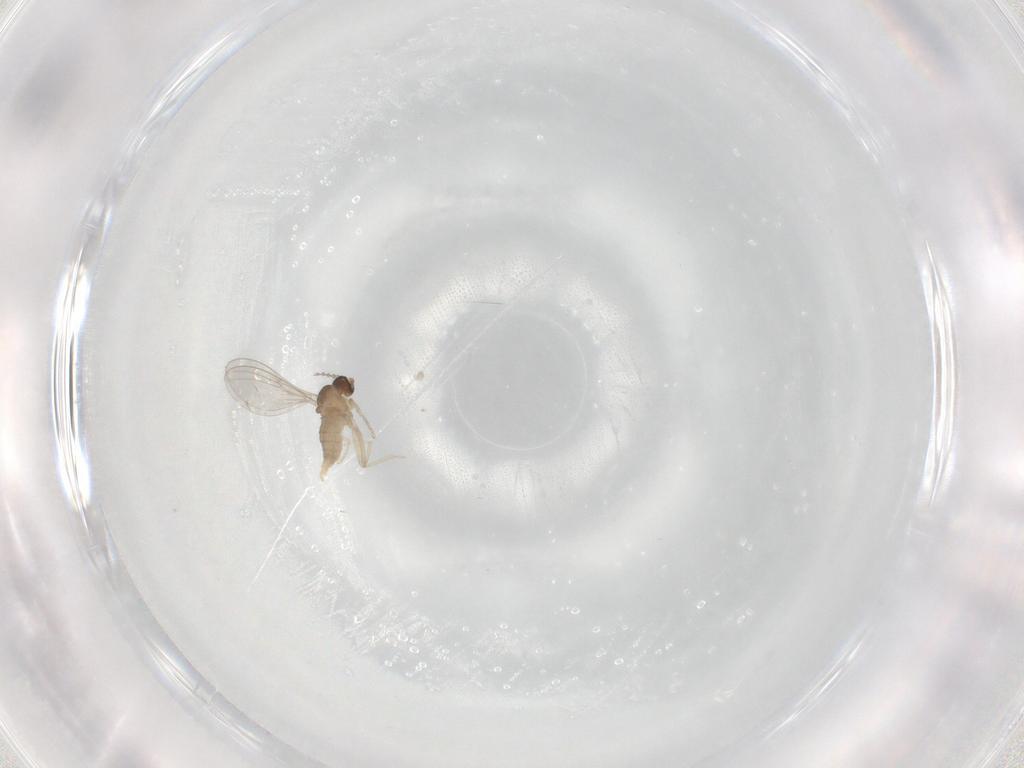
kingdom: Animalia
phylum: Arthropoda
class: Insecta
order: Diptera
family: Cecidomyiidae
